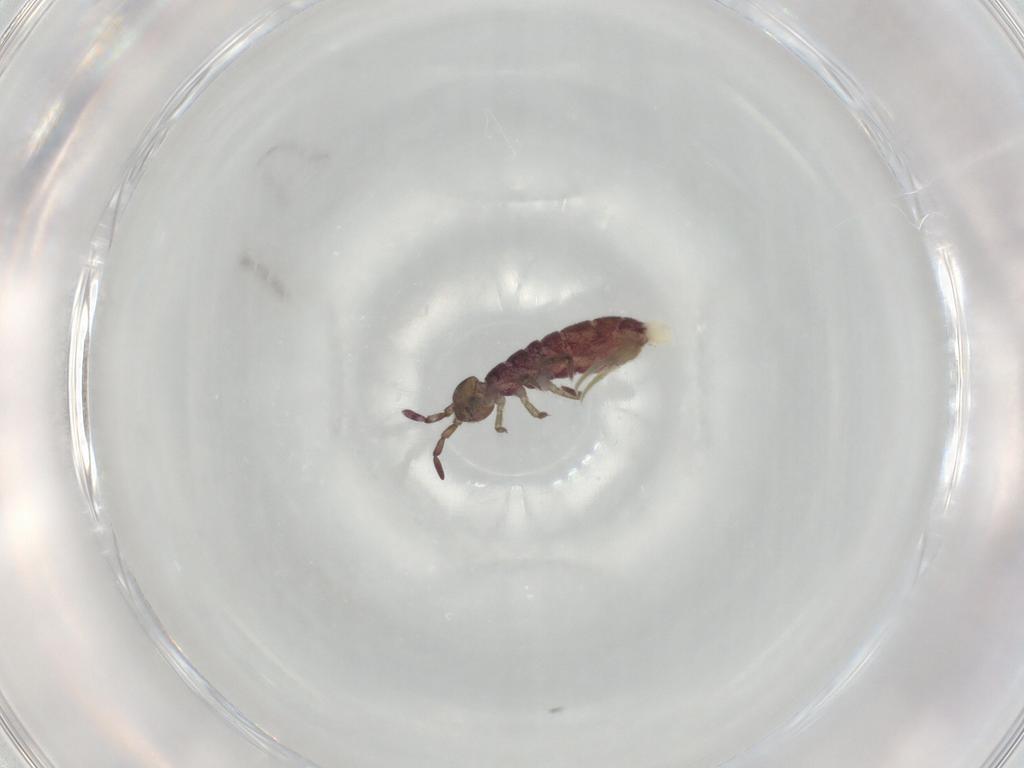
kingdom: Animalia
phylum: Arthropoda
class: Collembola
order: Entomobryomorpha
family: Isotomidae
